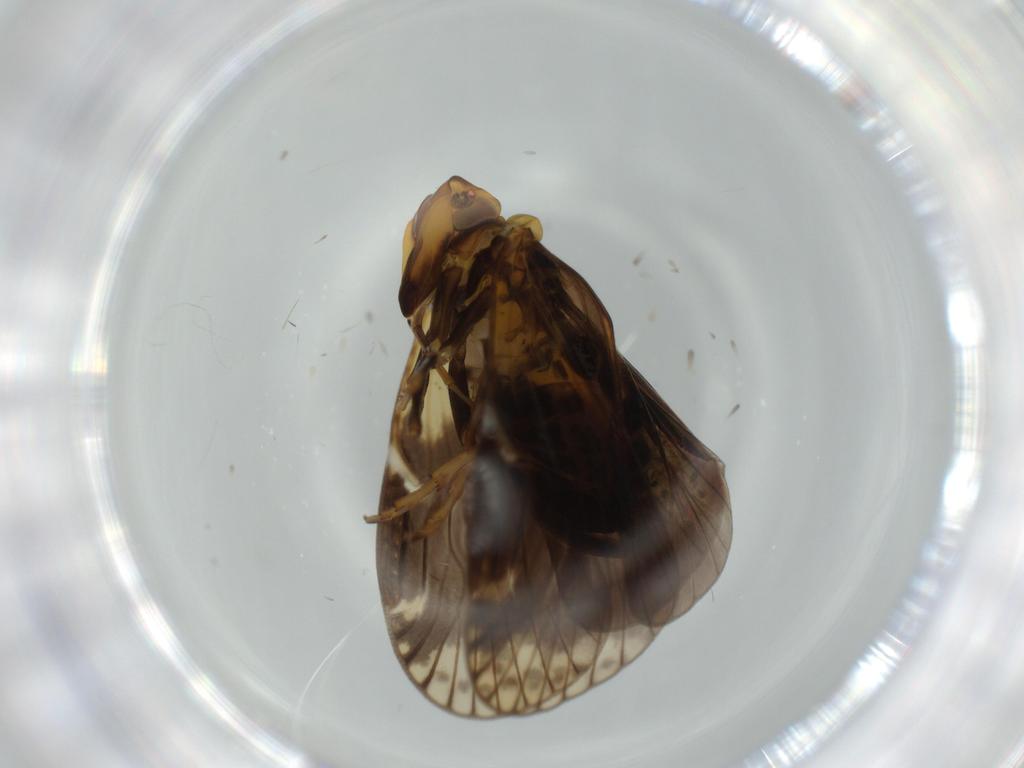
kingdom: Animalia
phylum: Arthropoda
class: Insecta
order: Hemiptera
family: Cixiidae
